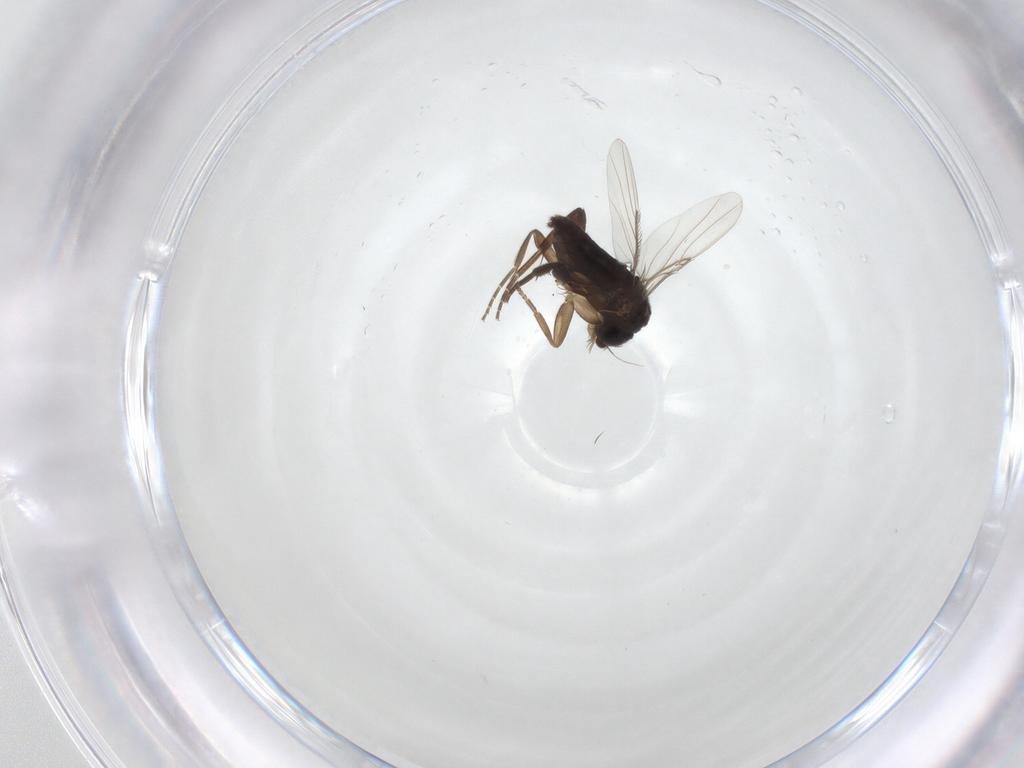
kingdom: Animalia
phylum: Arthropoda
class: Insecta
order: Diptera
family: Phoridae
